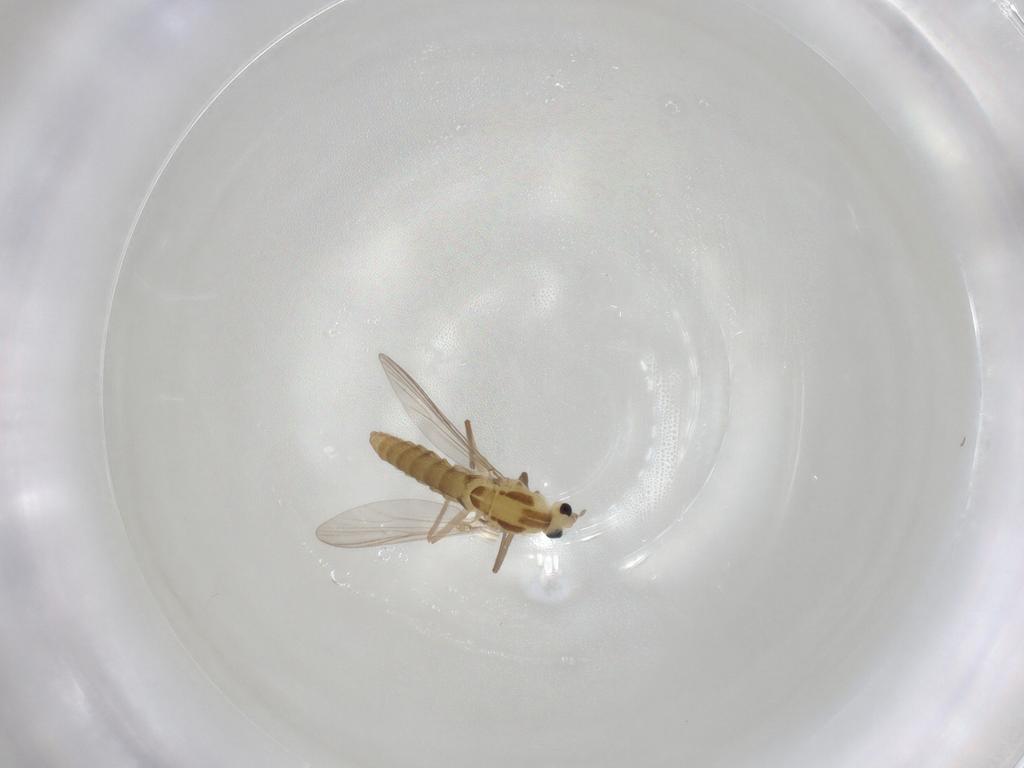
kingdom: Animalia
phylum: Arthropoda
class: Insecta
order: Diptera
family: Chironomidae
